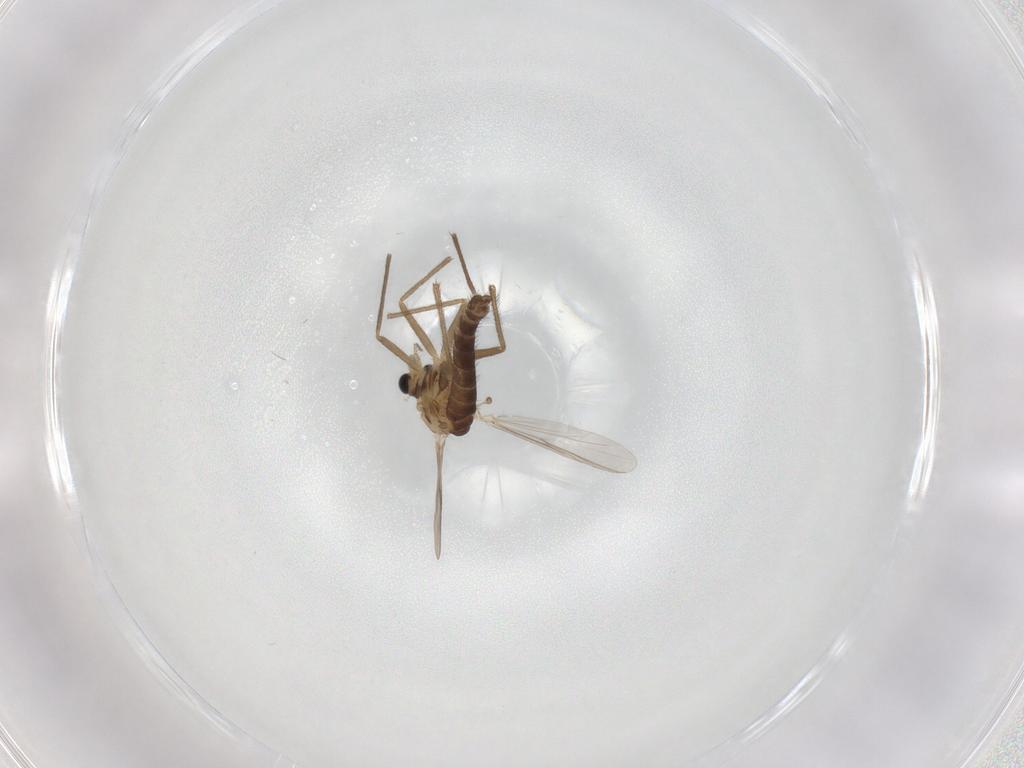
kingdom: Animalia
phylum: Arthropoda
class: Insecta
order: Diptera
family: Chironomidae
